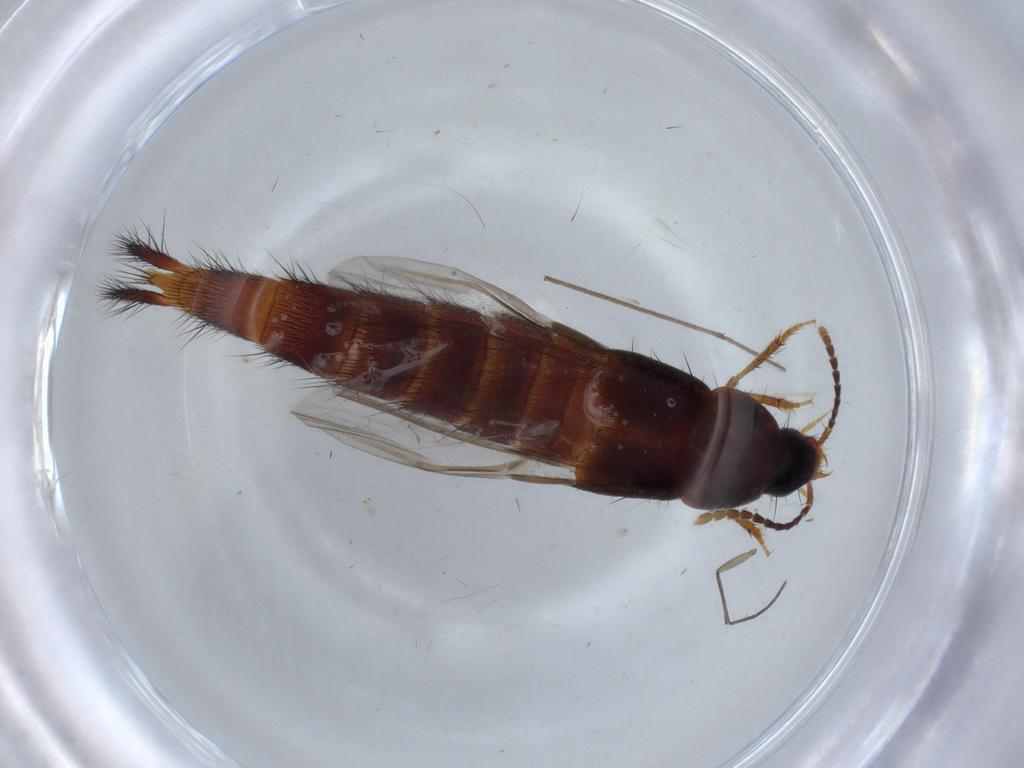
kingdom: Animalia
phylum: Arthropoda
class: Insecta
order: Coleoptera
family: Staphylinidae
